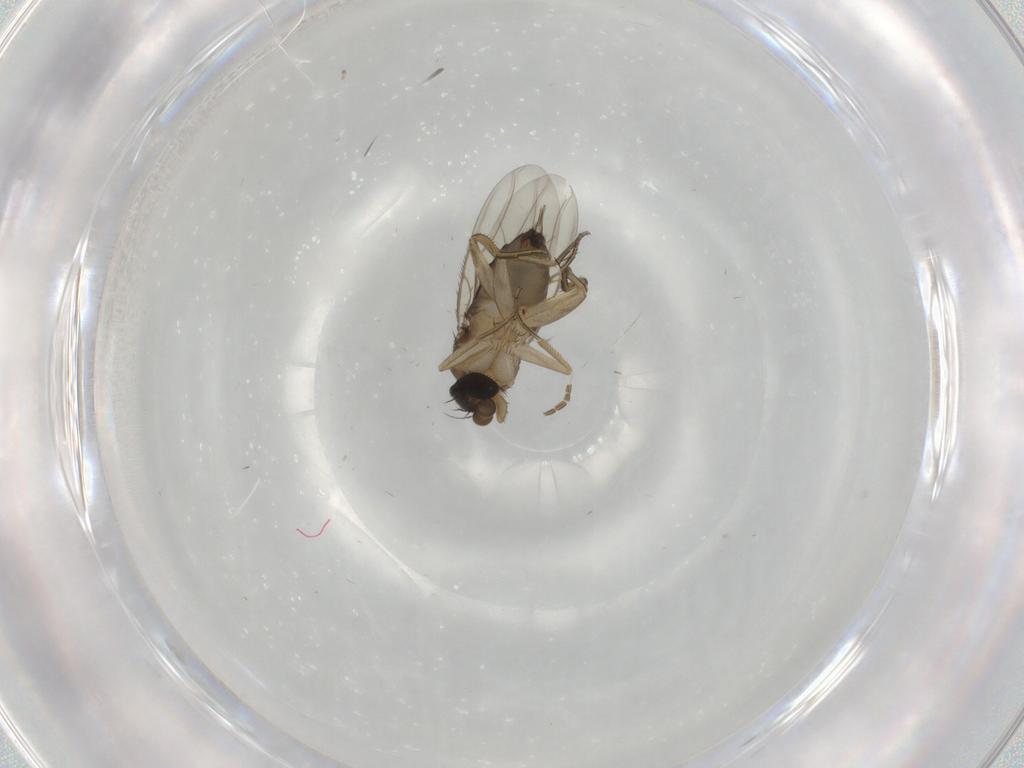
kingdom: Animalia
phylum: Arthropoda
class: Insecta
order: Diptera
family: Phoridae
